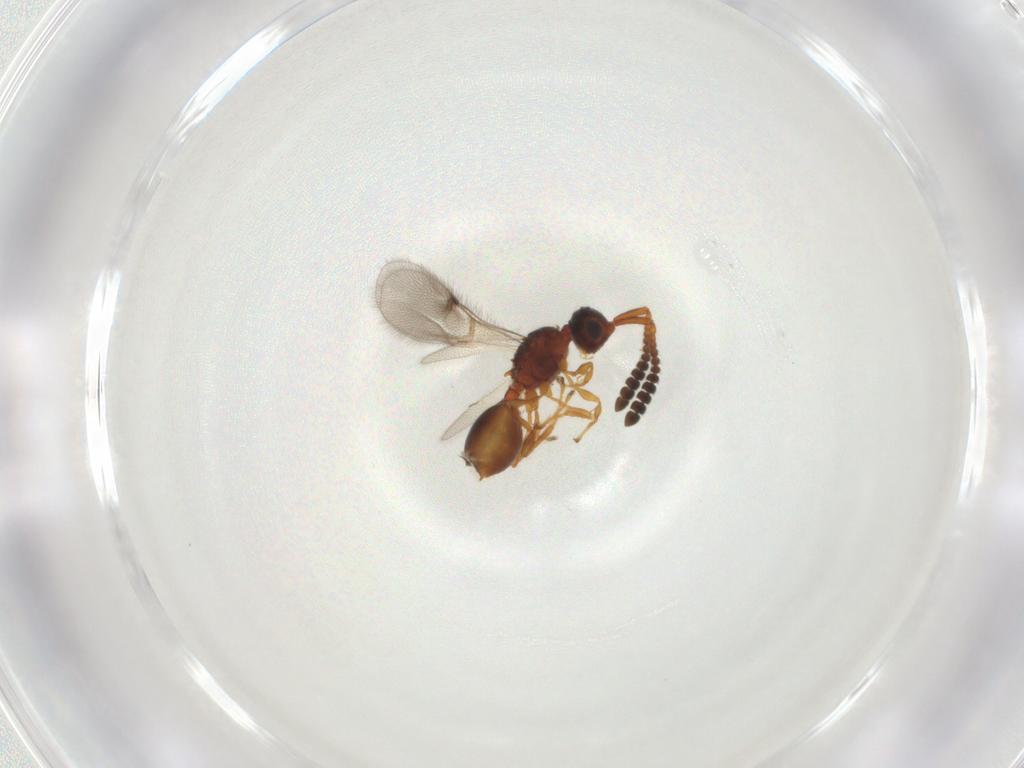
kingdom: Animalia
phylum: Arthropoda
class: Insecta
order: Hymenoptera
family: Diapriidae
